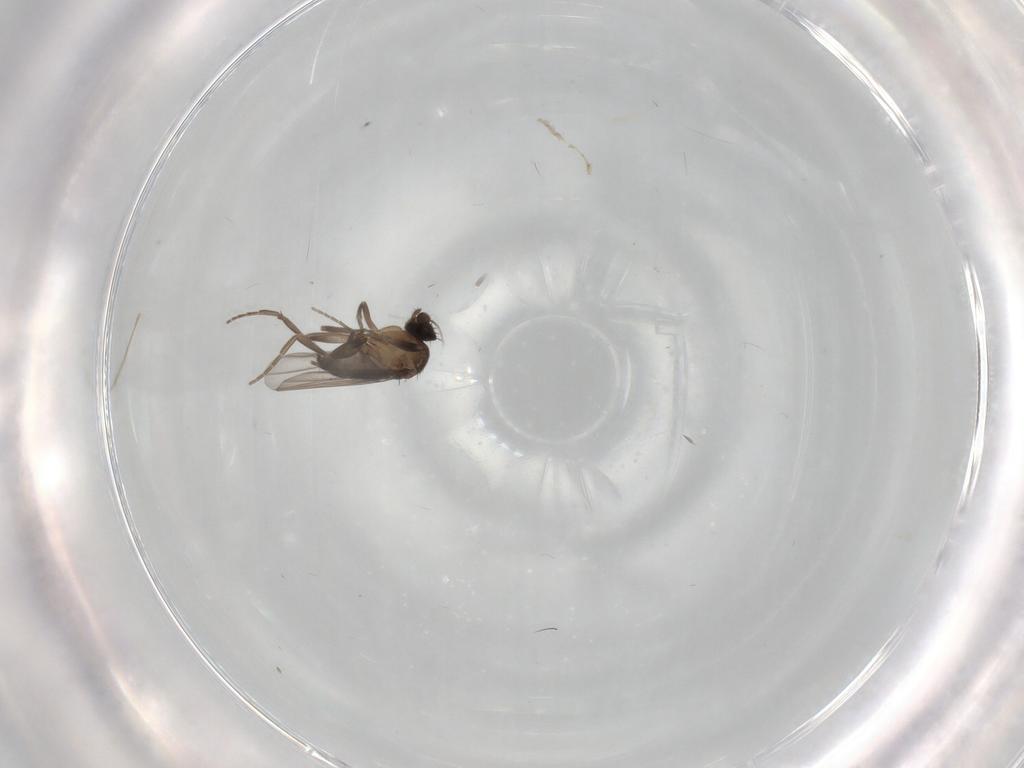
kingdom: Animalia
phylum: Arthropoda
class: Insecta
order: Diptera
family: Phoridae
